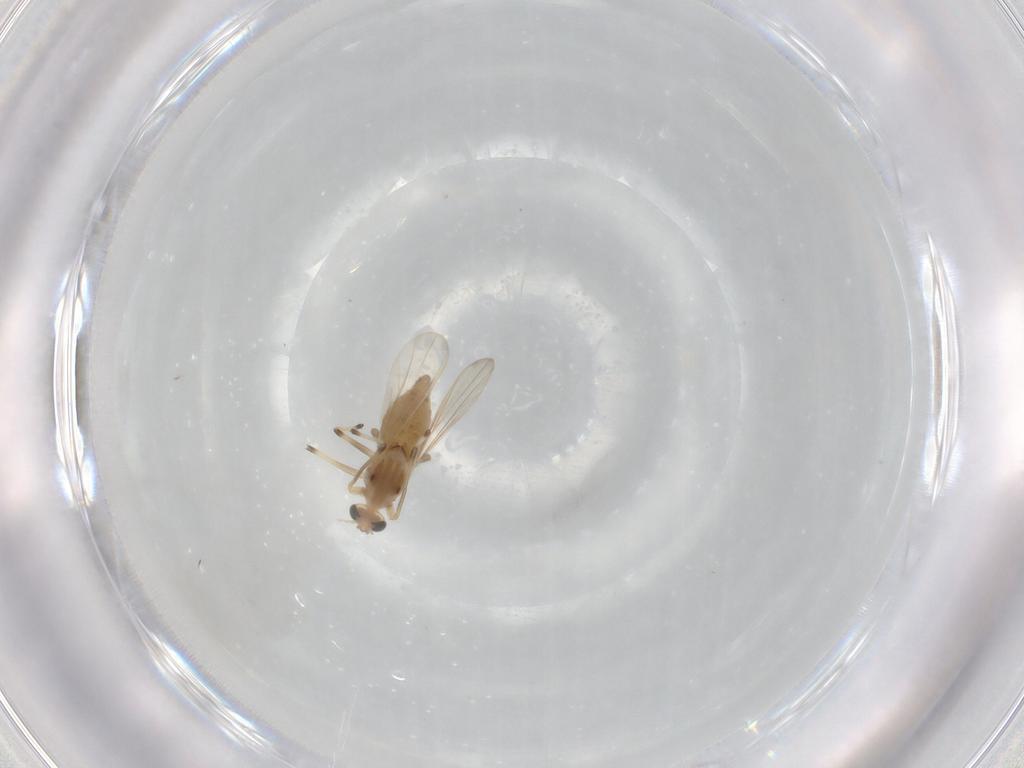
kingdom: Animalia
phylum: Arthropoda
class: Insecta
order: Diptera
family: Chironomidae
